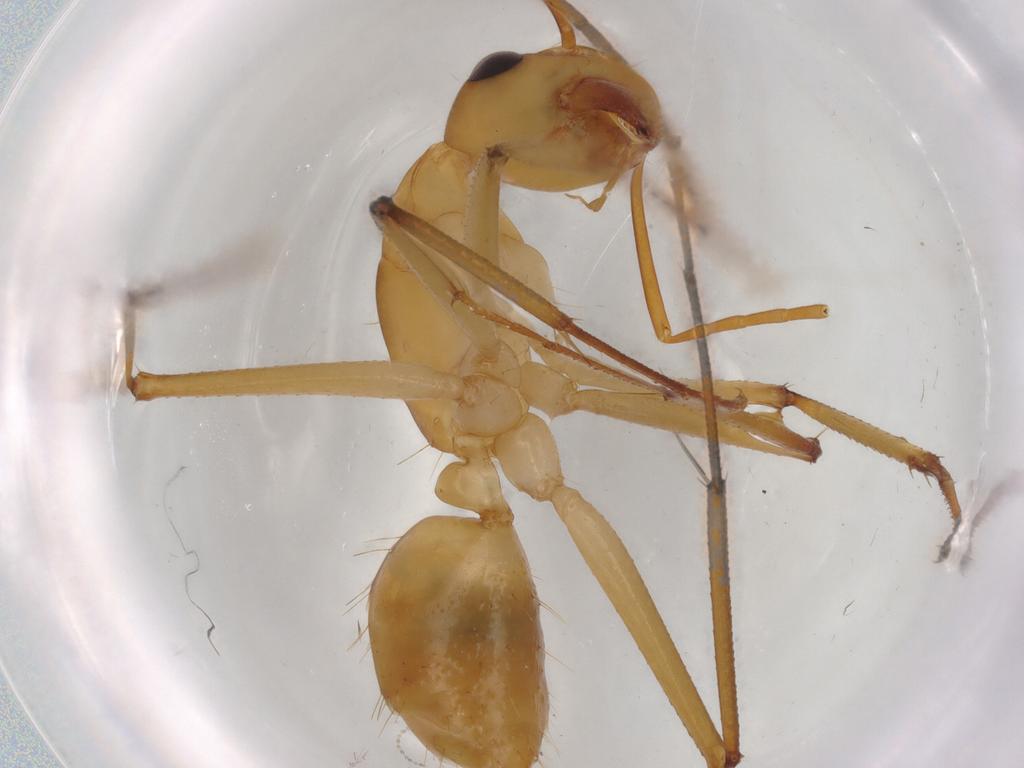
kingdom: Animalia
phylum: Arthropoda
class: Insecta
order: Hymenoptera
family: Formicidae
